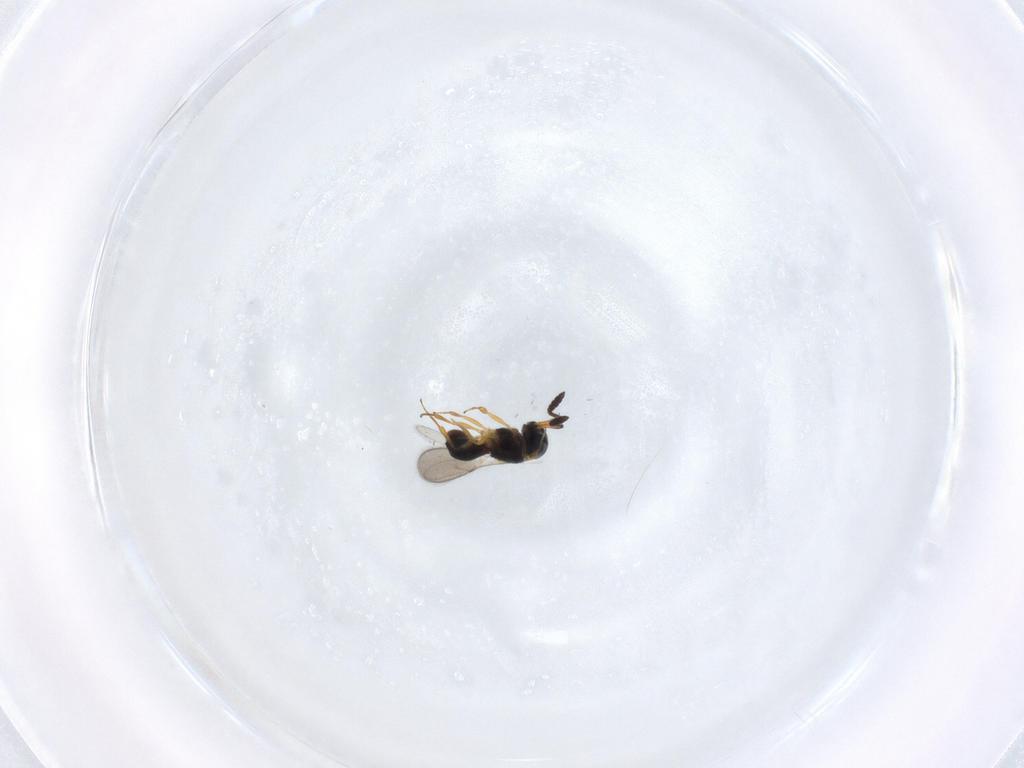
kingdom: Animalia
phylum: Arthropoda
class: Insecta
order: Hymenoptera
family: Scelionidae
